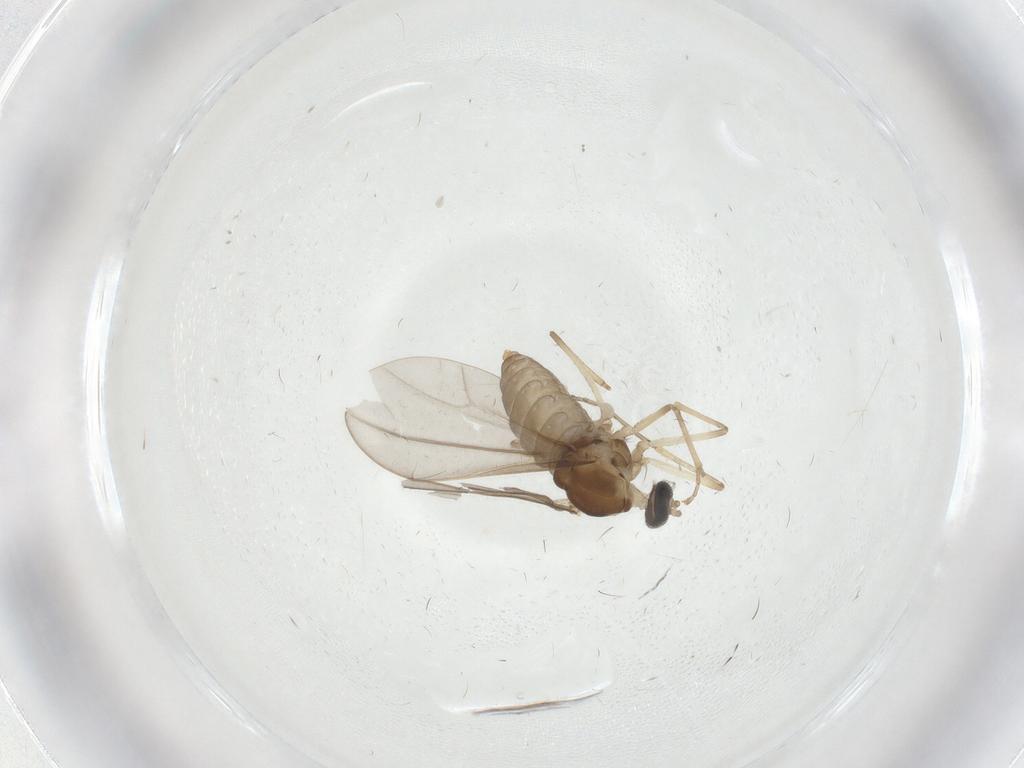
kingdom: Animalia
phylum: Arthropoda
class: Insecta
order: Diptera
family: Cecidomyiidae
